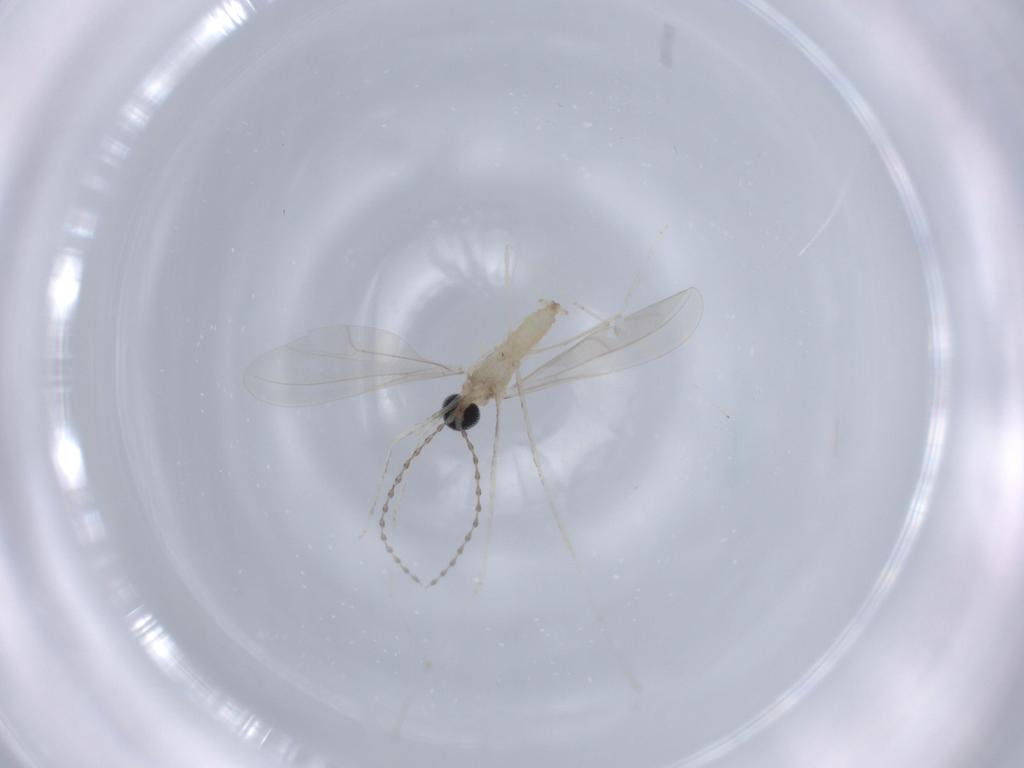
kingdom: Animalia
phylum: Arthropoda
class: Insecta
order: Diptera
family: Cecidomyiidae
